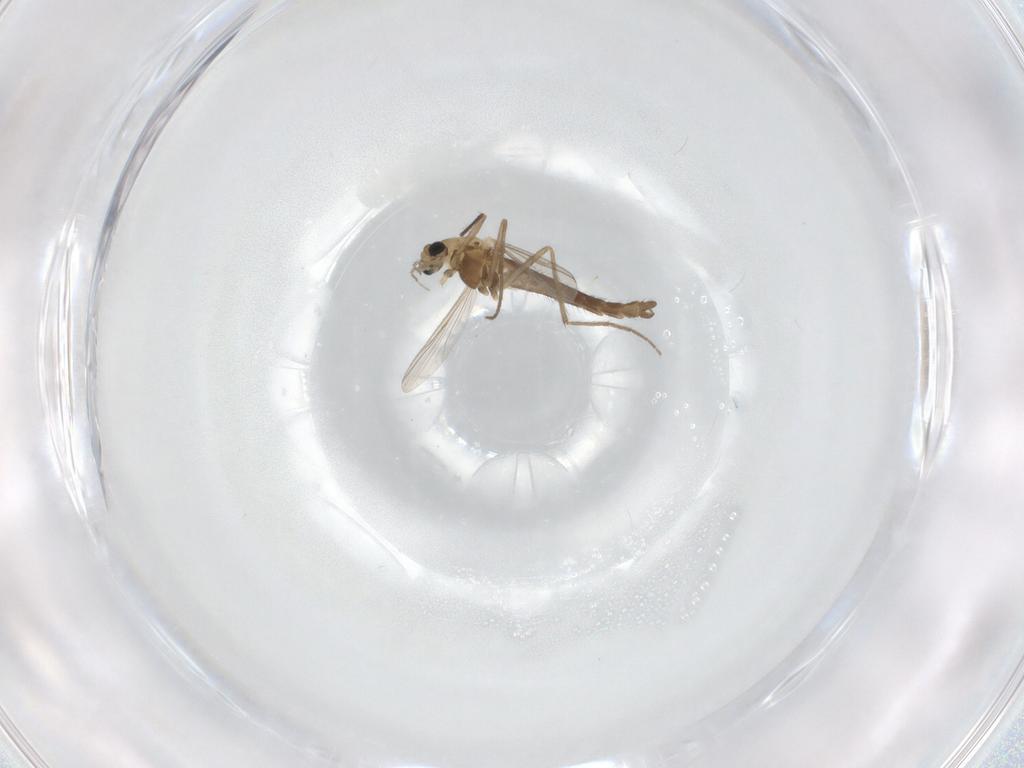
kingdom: Animalia
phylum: Arthropoda
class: Insecta
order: Diptera
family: Chironomidae
